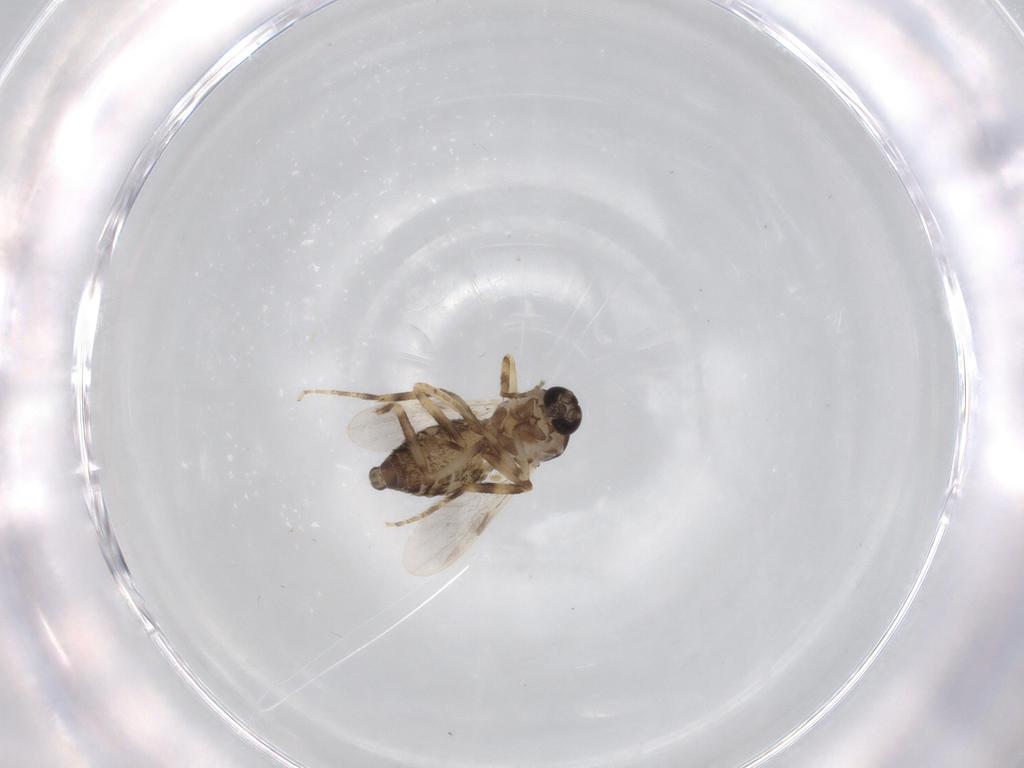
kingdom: Animalia
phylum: Arthropoda
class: Insecta
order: Diptera
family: Ceratopogonidae
